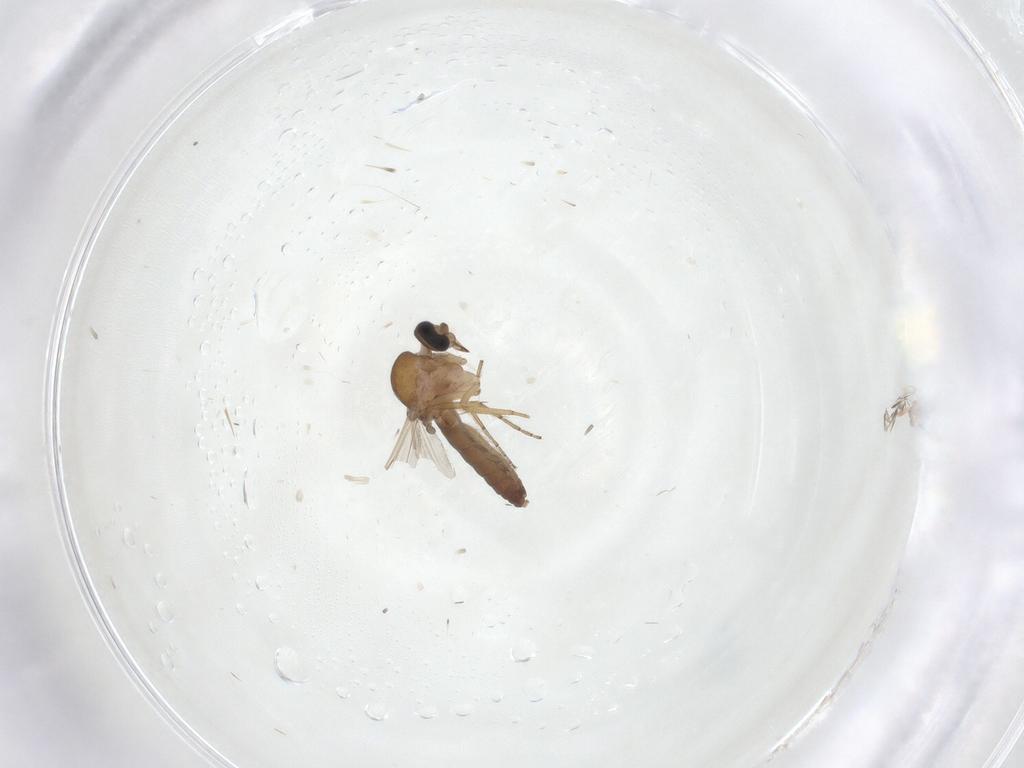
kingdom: Animalia
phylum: Arthropoda
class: Insecta
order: Diptera
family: Ceratopogonidae
